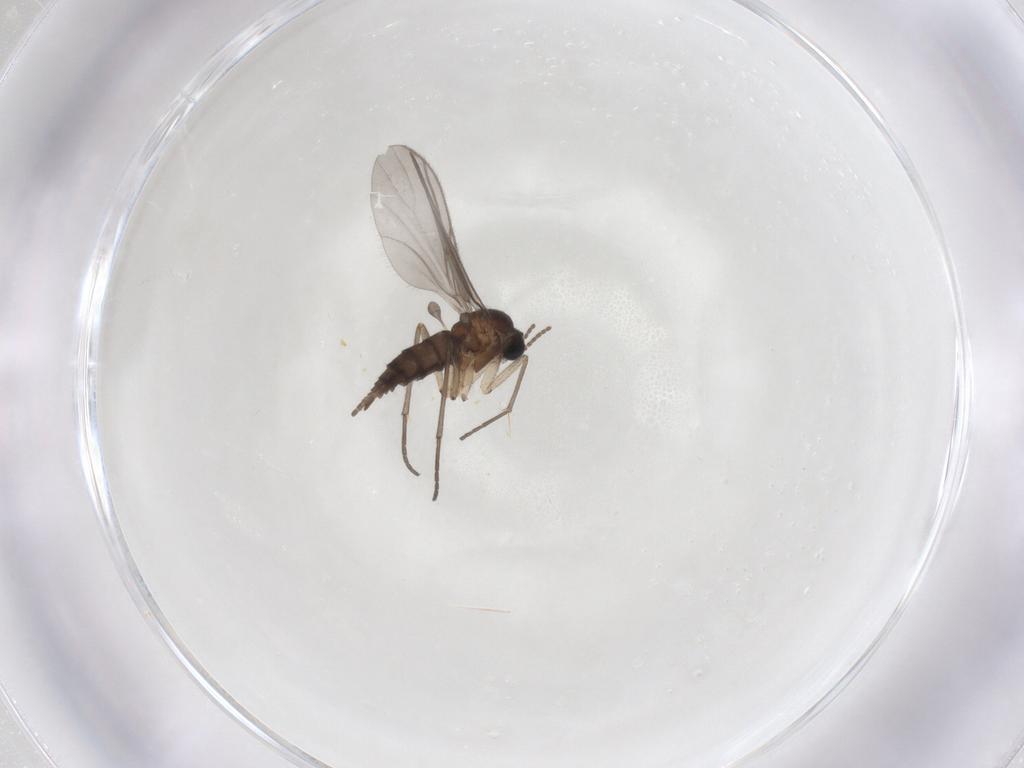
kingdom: Animalia
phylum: Arthropoda
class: Insecta
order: Diptera
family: Sciaridae
